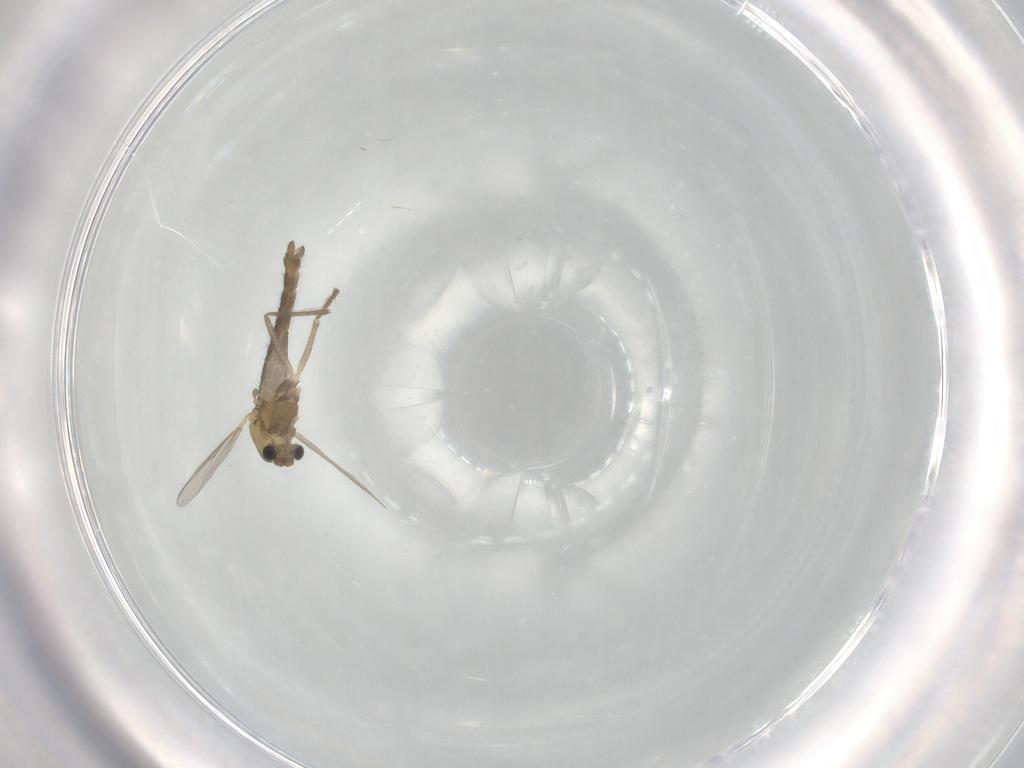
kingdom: Animalia
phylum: Arthropoda
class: Insecta
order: Diptera
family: Chironomidae
